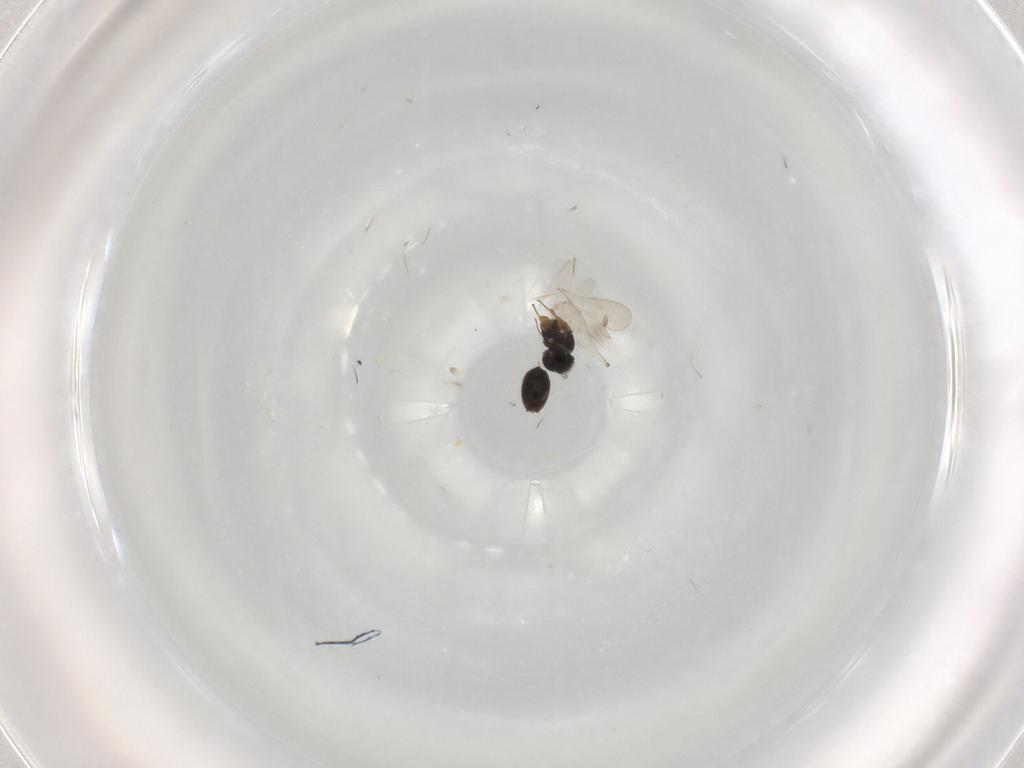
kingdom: Animalia
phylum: Arthropoda
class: Insecta
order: Hymenoptera
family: Scelionidae
